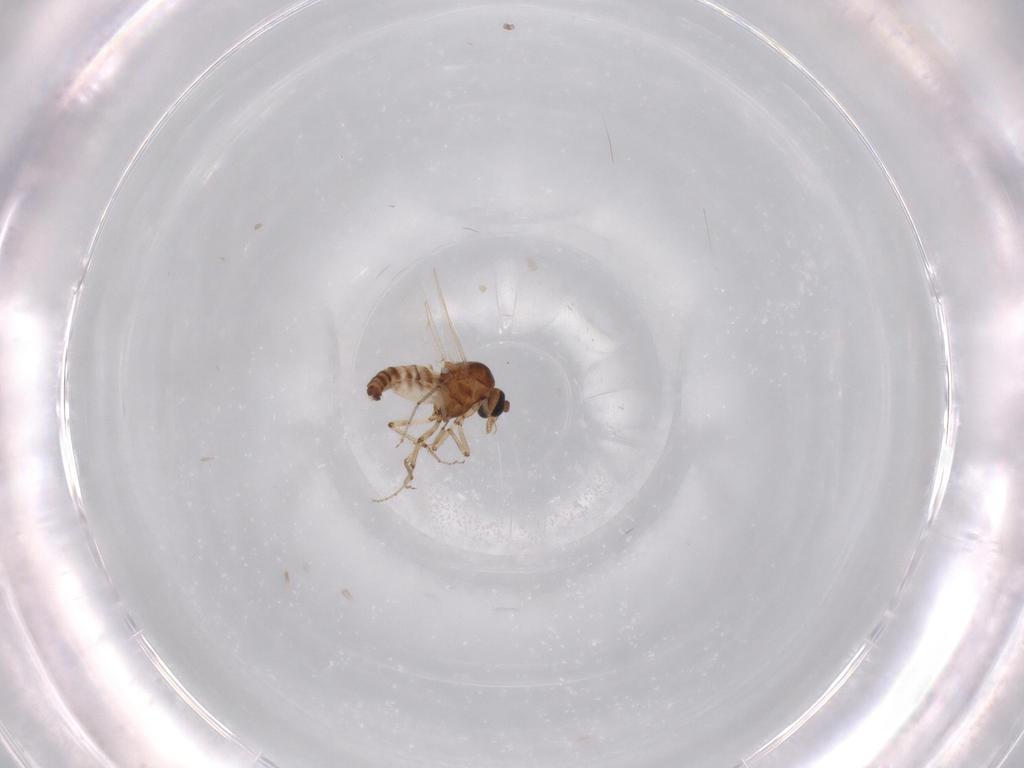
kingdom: Animalia
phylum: Arthropoda
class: Insecta
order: Diptera
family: Ceratopogonidae
